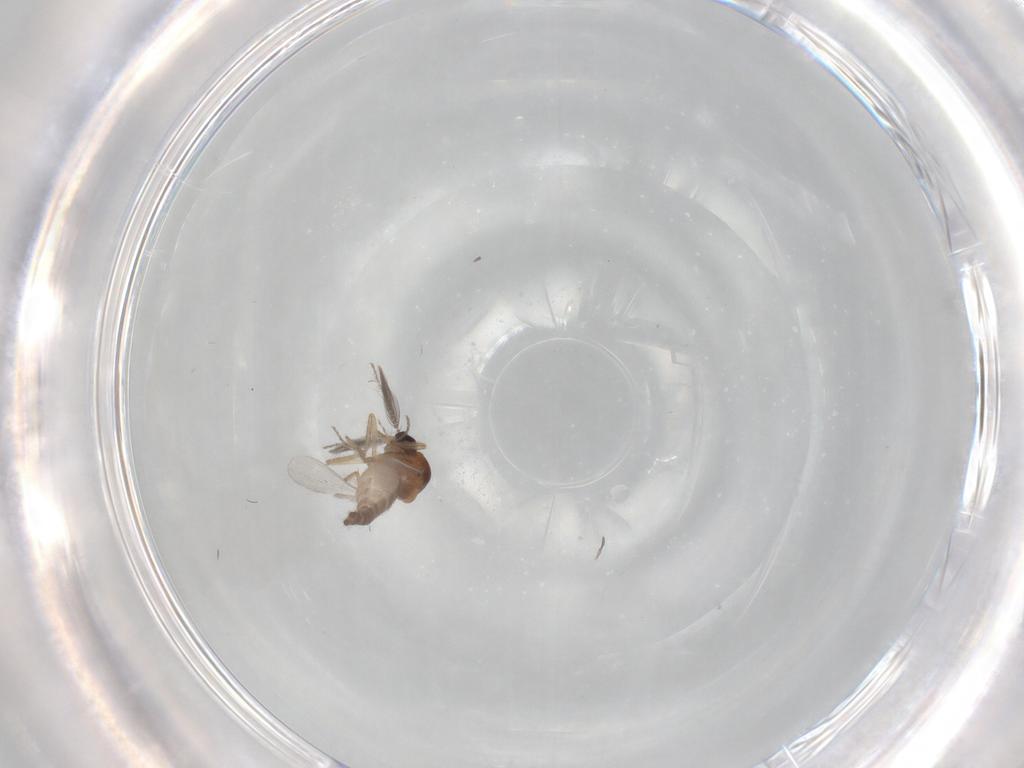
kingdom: Animalia
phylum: Arthropoda
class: Insecta
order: Diptera
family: Ceratopogonidae
